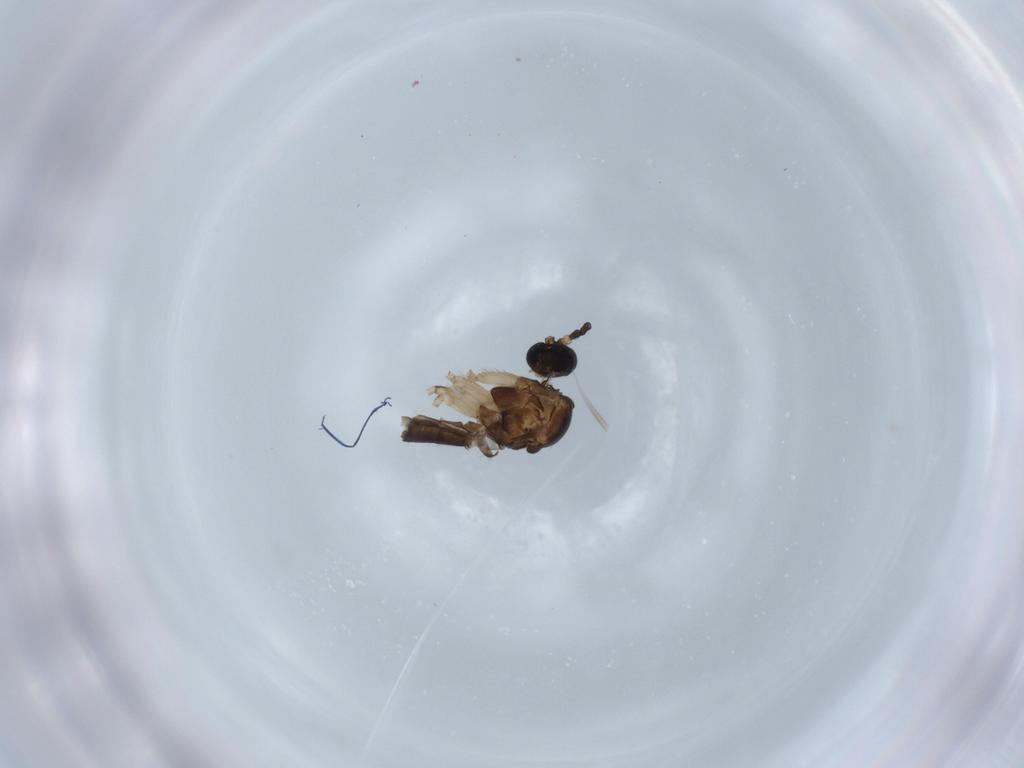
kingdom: Animalia
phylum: Arthropoda
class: Insecta
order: Diptera
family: Sciaridae
